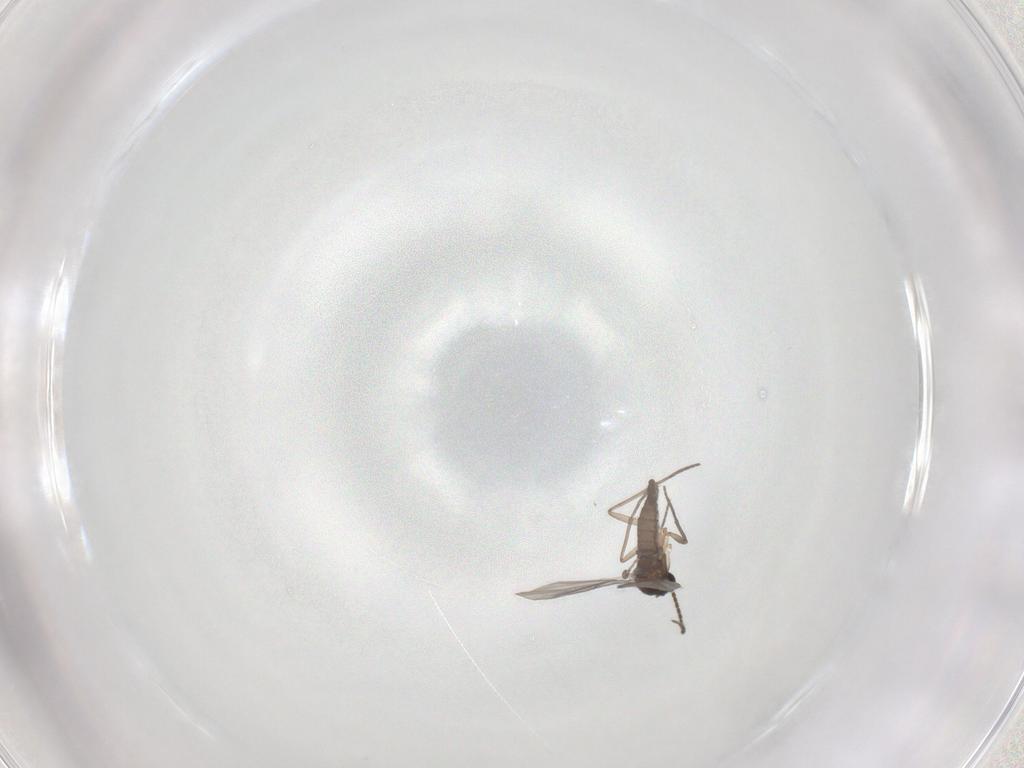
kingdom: Animalia
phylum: Arthropoda
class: Insecta
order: Diptera
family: Sciaridae
